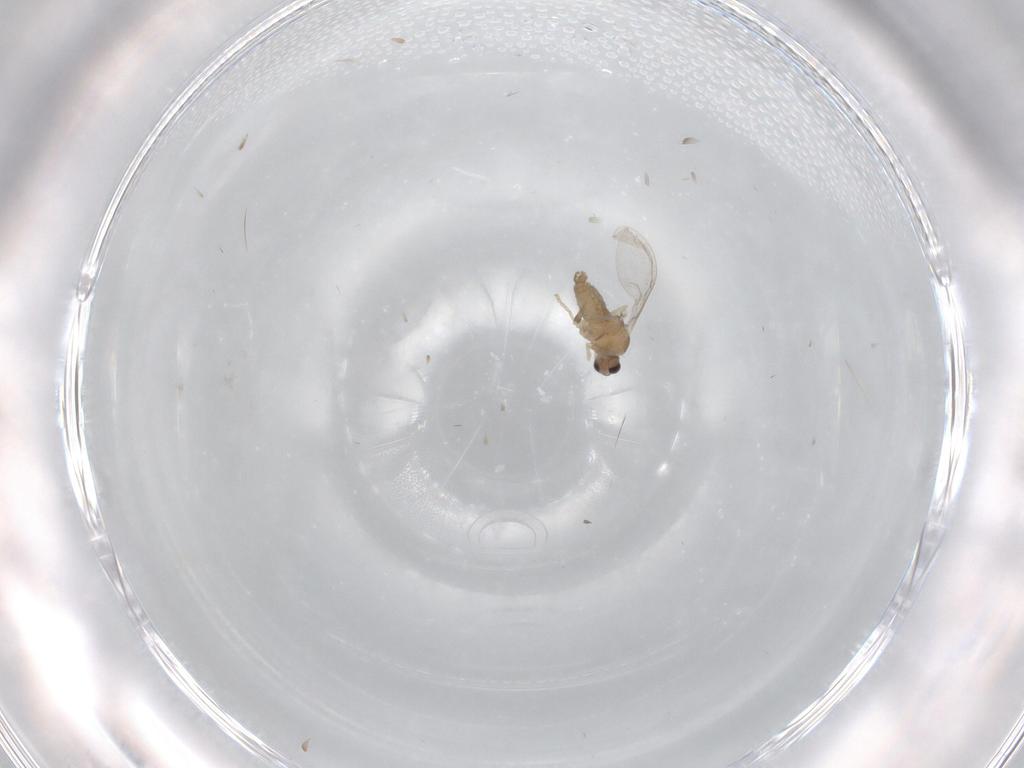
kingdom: Animalia
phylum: Arthropoda
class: Insecta
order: Diptera
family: Cecidomyiidae
